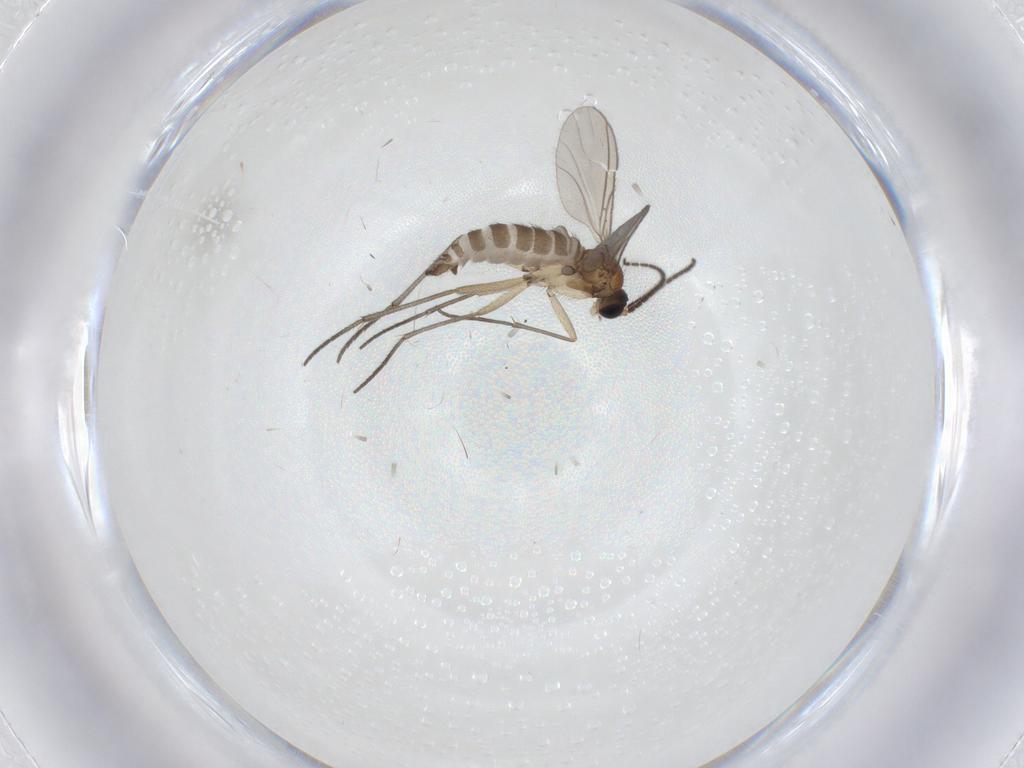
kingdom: Animalia
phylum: Arthropoda
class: Insecta
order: Diptera
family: Sciaridae
